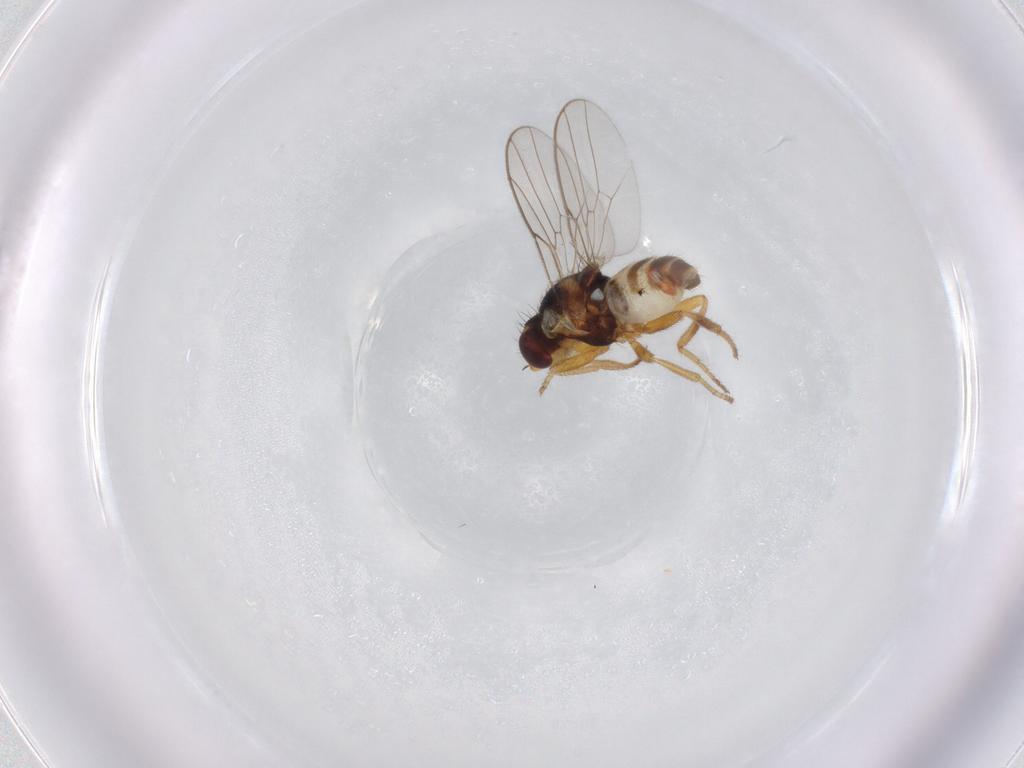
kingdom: Animalia
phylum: Arthropoda
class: Insecta
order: Diptera
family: Chloropidae
